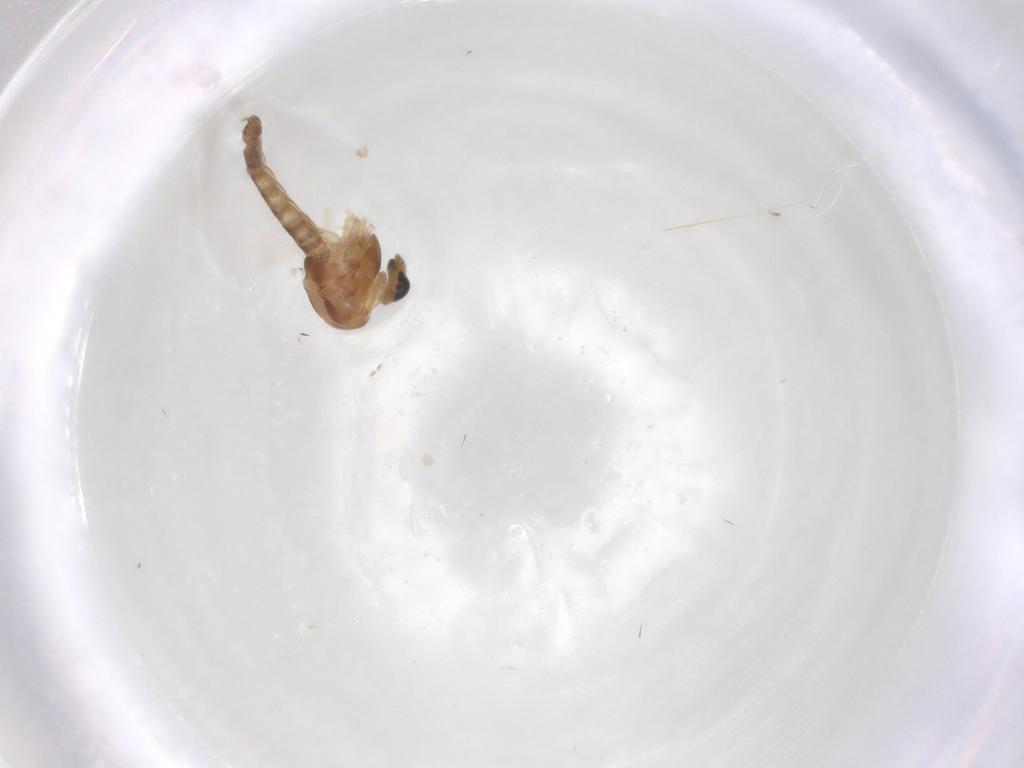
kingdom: Animalia
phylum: Arthropoda
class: Insecta
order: Diptera
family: Chironomidae
